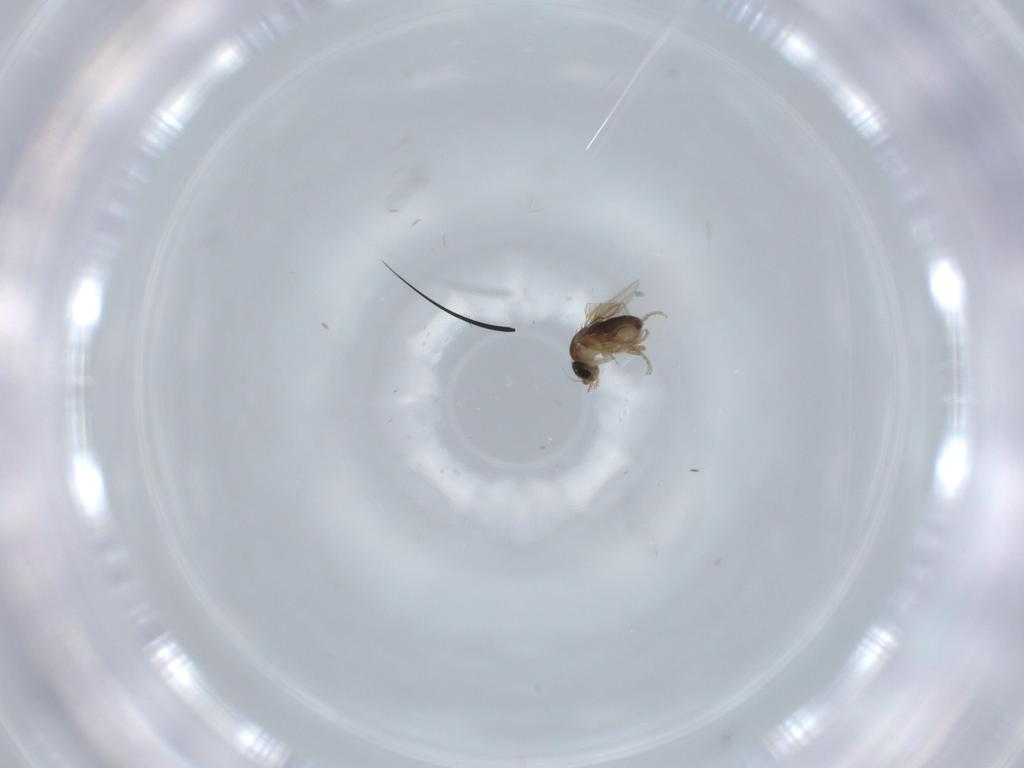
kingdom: Animalia
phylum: Arthropoda
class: Insecta
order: Diptera
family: Phoridae
